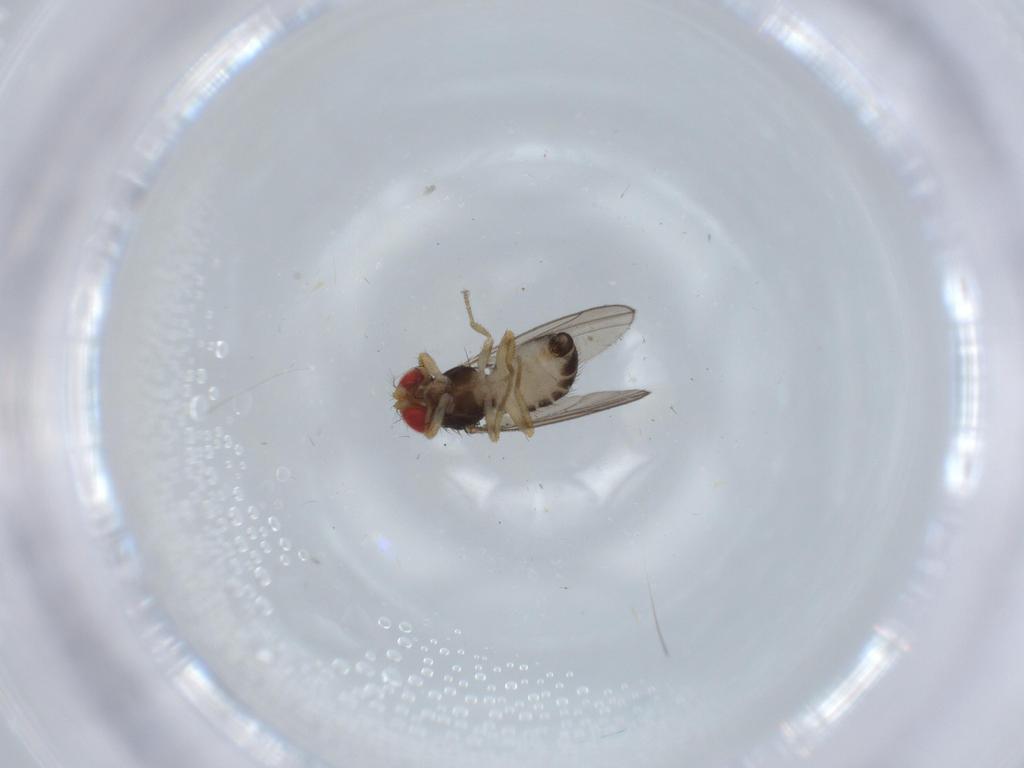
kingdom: Animalia
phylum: Arthropoda
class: Insecta
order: Diptera
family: Drosophilidae
